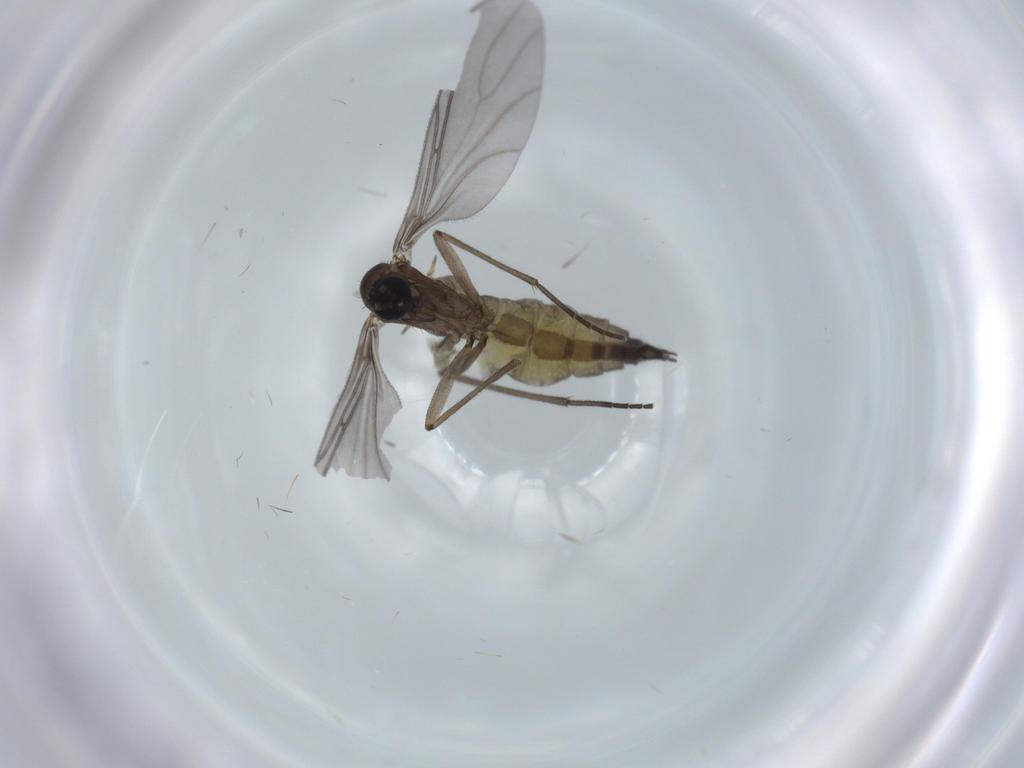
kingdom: Animalia
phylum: Arthropoda
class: Insecta
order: Diptera
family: Sciaridae
